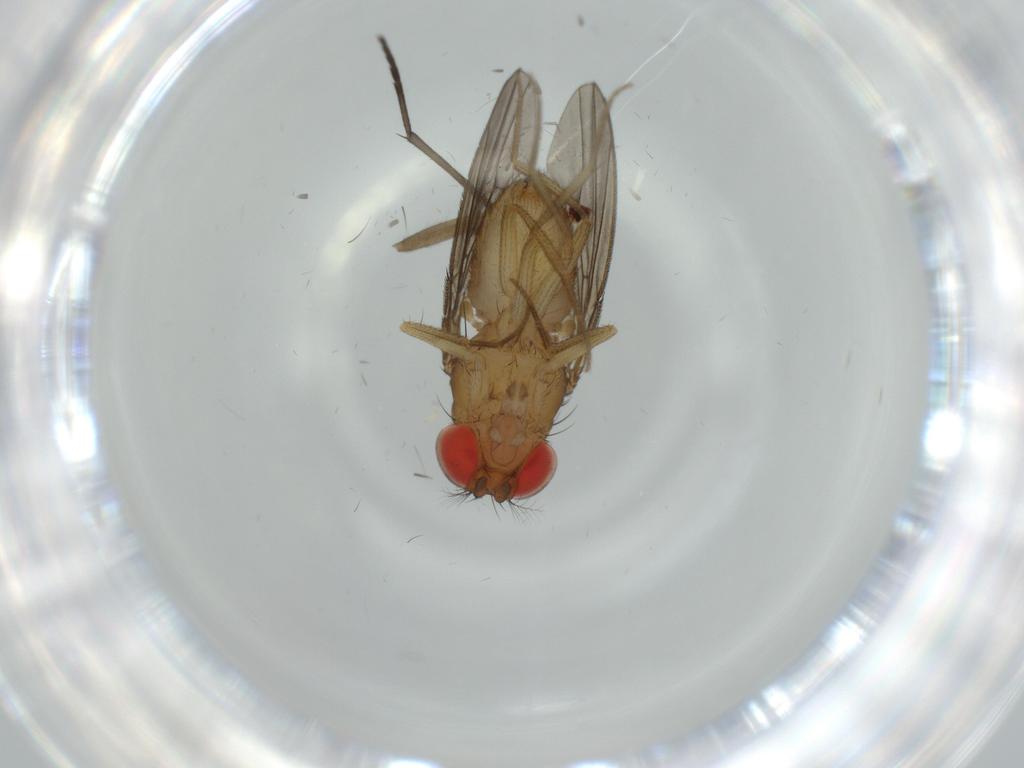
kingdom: Animalia
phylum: Arthropoda
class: Insecta
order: Diptera
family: Drosophilidae
